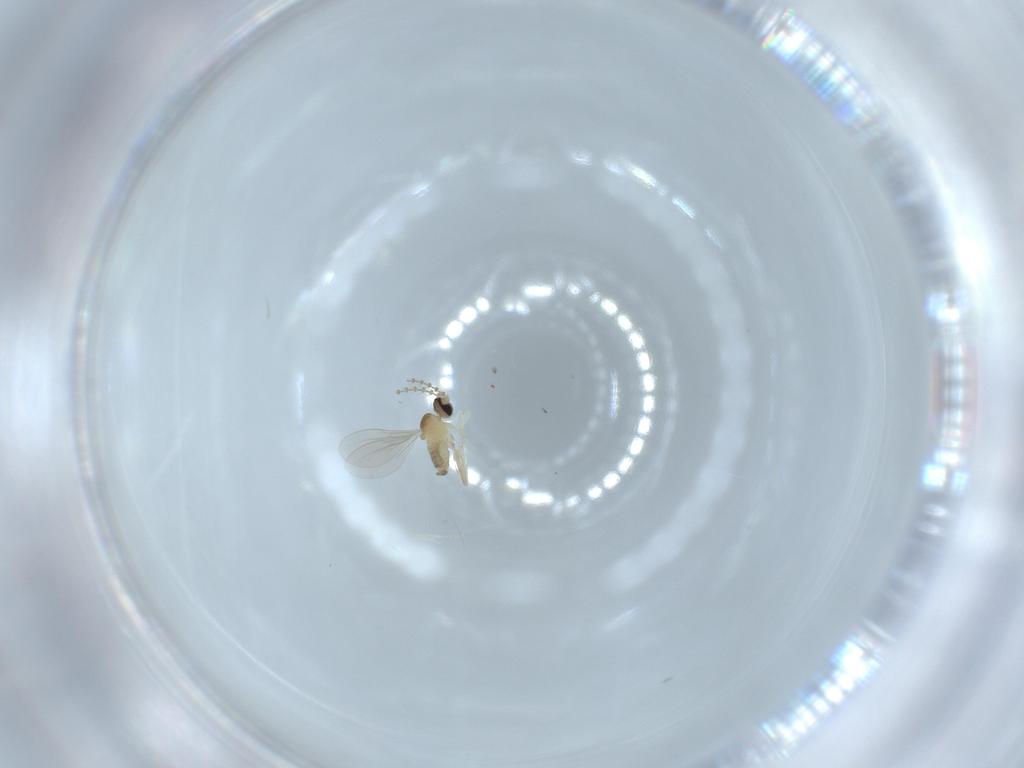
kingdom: Animalia
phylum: Arthropoda
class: Insecta
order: Diptera
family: Cecidomyiidae
